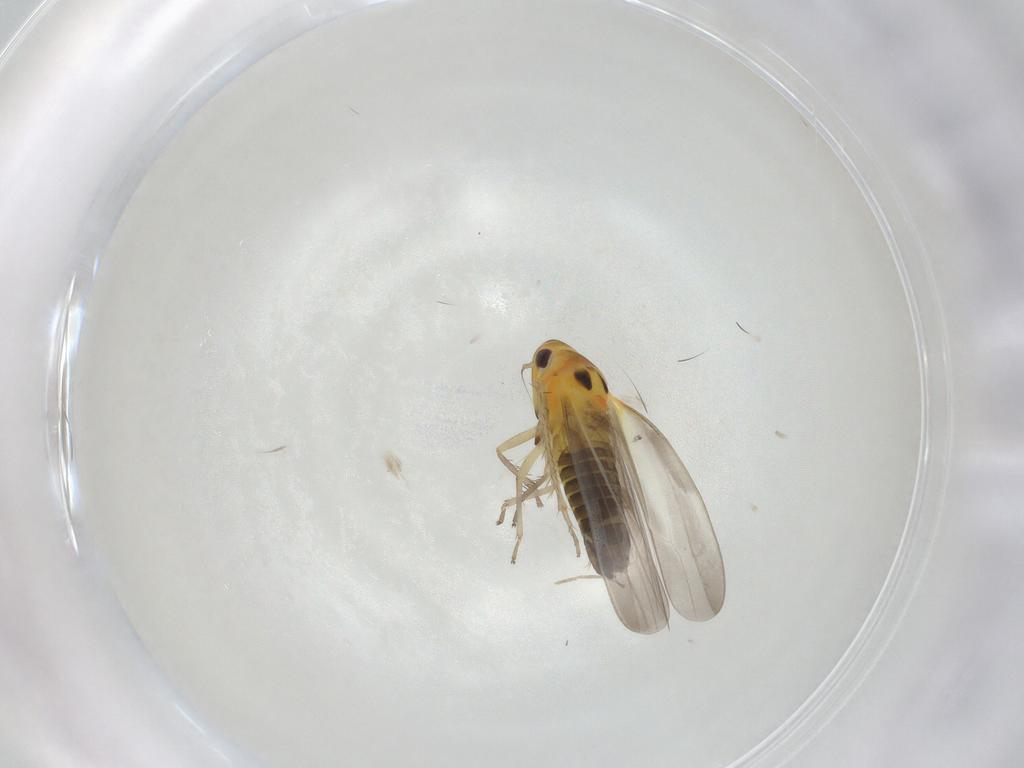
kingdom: Animalia
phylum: Arthropoda
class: Insecta
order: Hemiptera
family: Cicadellidae
